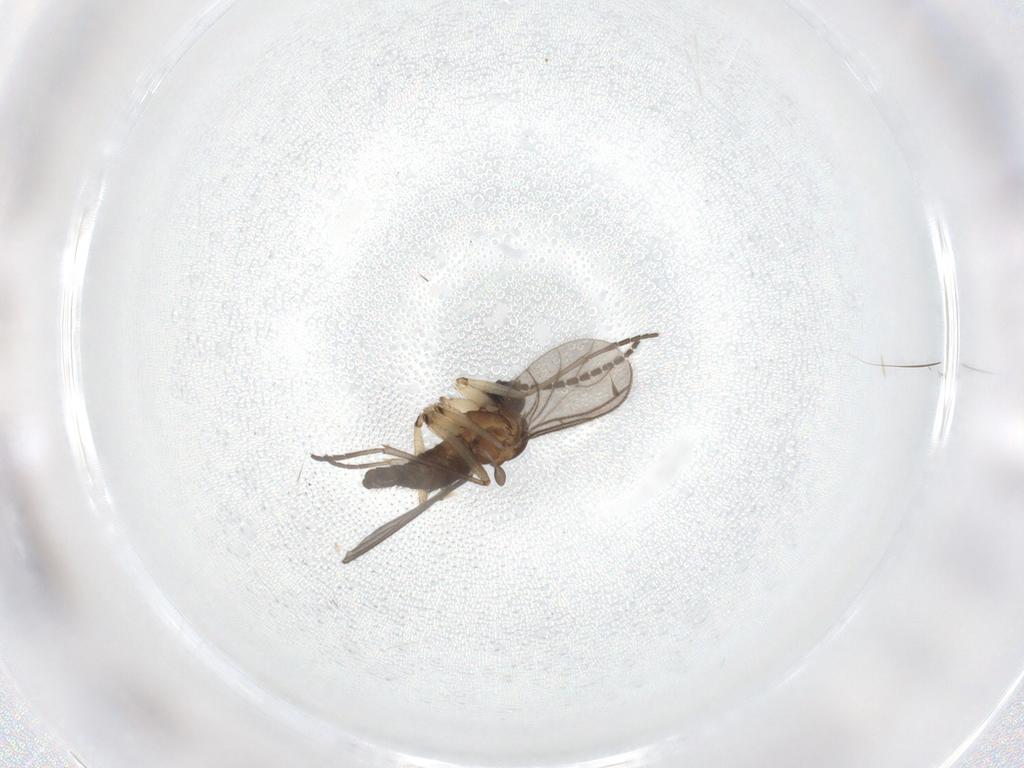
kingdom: Animalia
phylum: Arthropoda
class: Insecta
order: Diptera
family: Sciaridae
